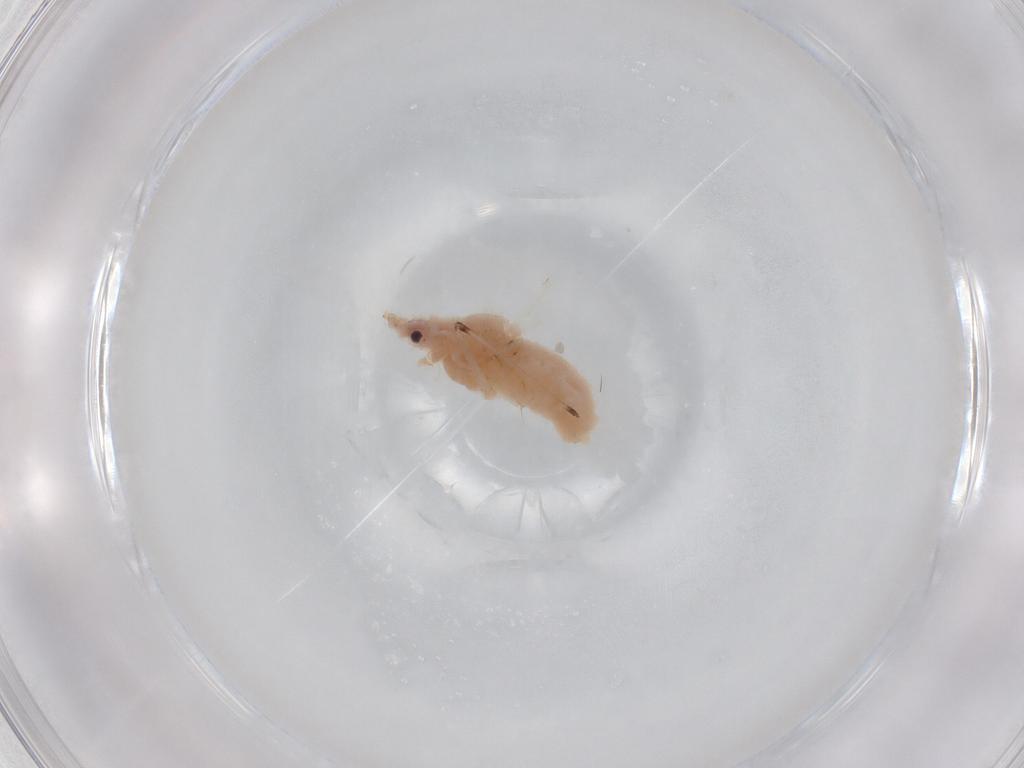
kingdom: Animalia
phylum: Arthropoda
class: Insecta
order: Hemiptera
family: Aphididae
